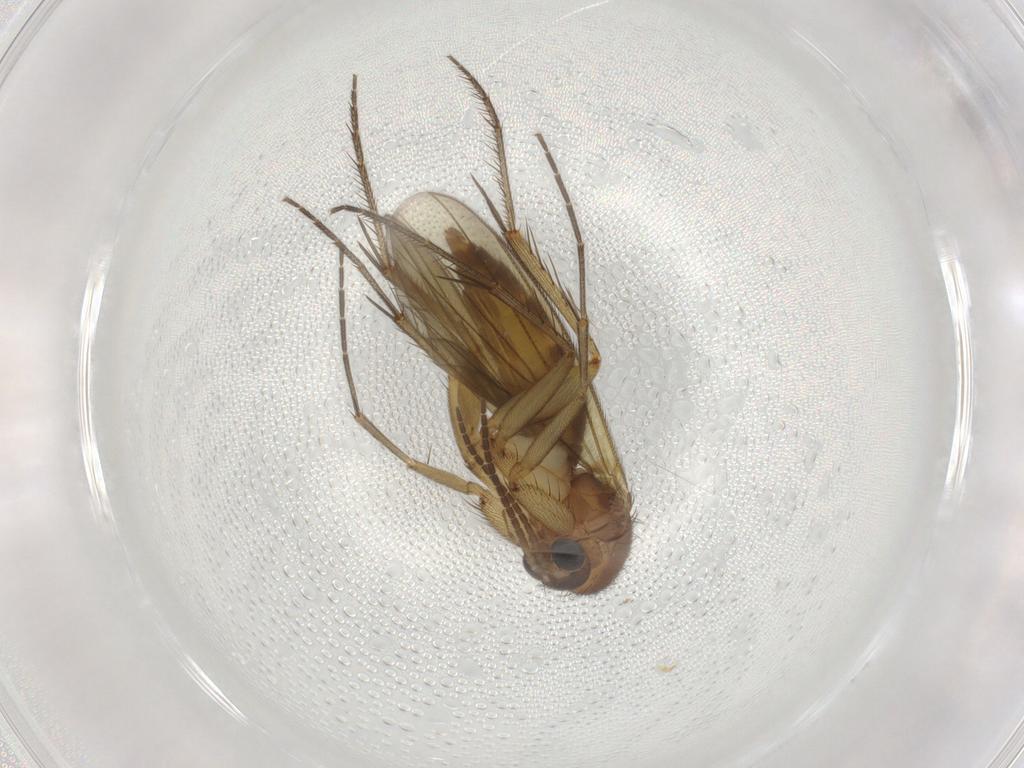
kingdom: Animalia
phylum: Arthropoda
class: Insecta
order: Diptera
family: Mycetophilidae
